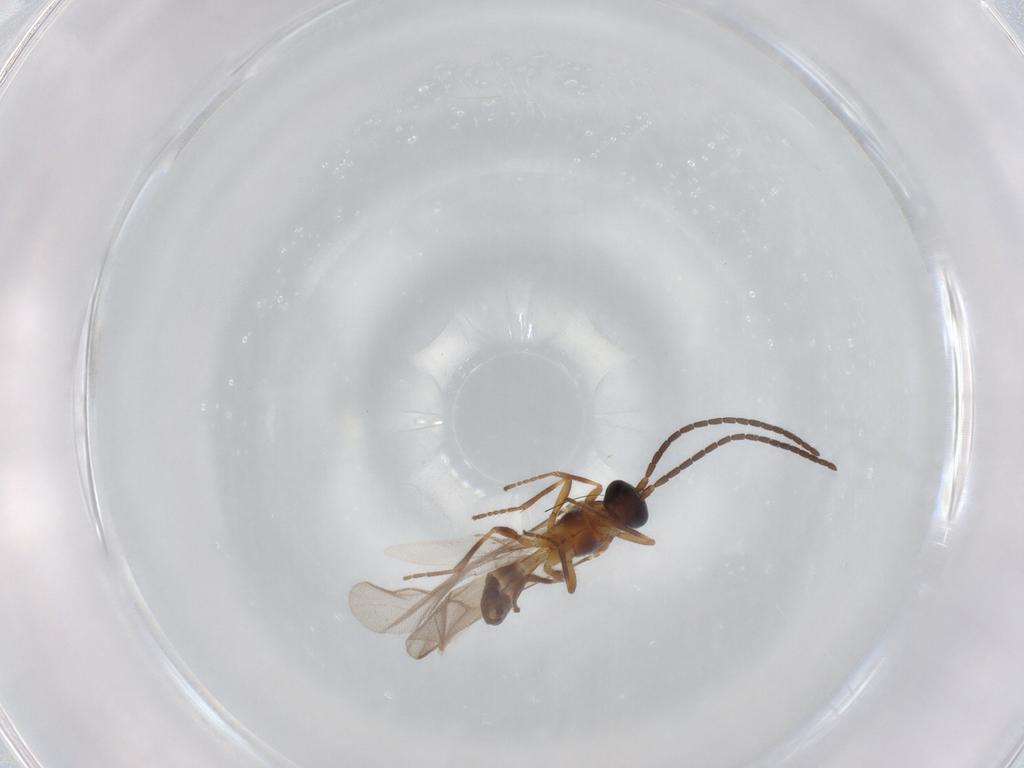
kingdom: Animalia
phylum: Arthropoda
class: Insecta
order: Hymenoptera
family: Braconidae
